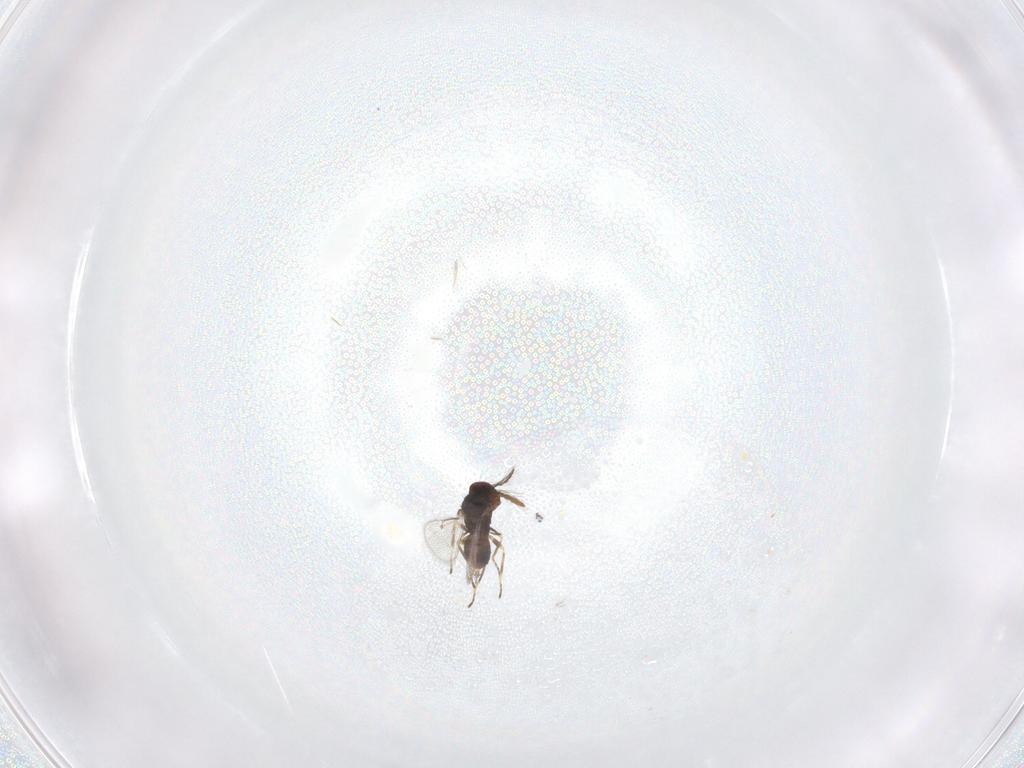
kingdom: Animalia
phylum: Arthropoda
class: Insecta
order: Hymenoptera
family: Eulophidae
